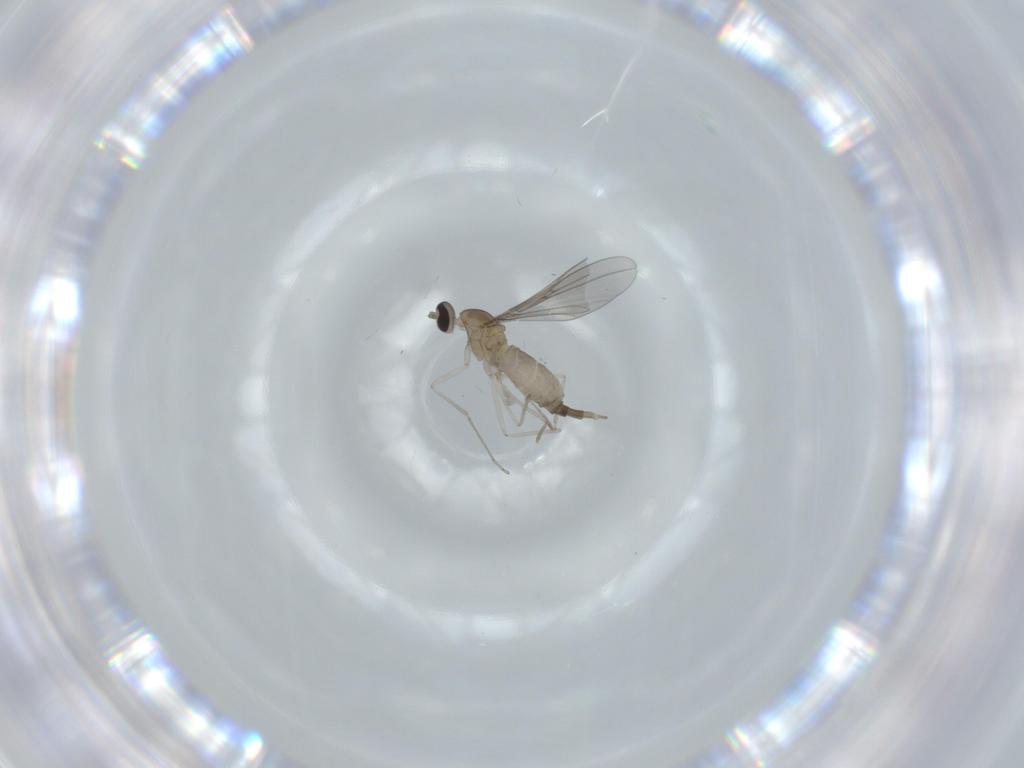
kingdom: Animalia
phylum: Arthropoda
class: Insecta
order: Diptera
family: Cecidomyiidae
